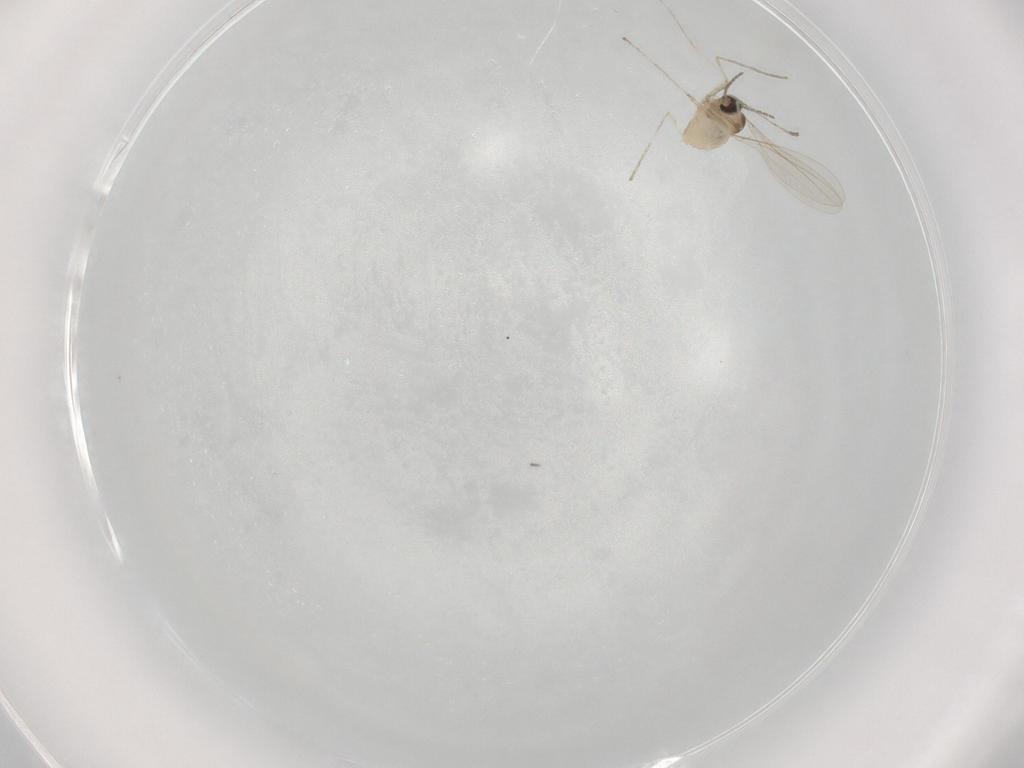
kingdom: Animalia
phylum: Arthropoda
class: Insecta
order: Diptera
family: Cecidomyiidae
